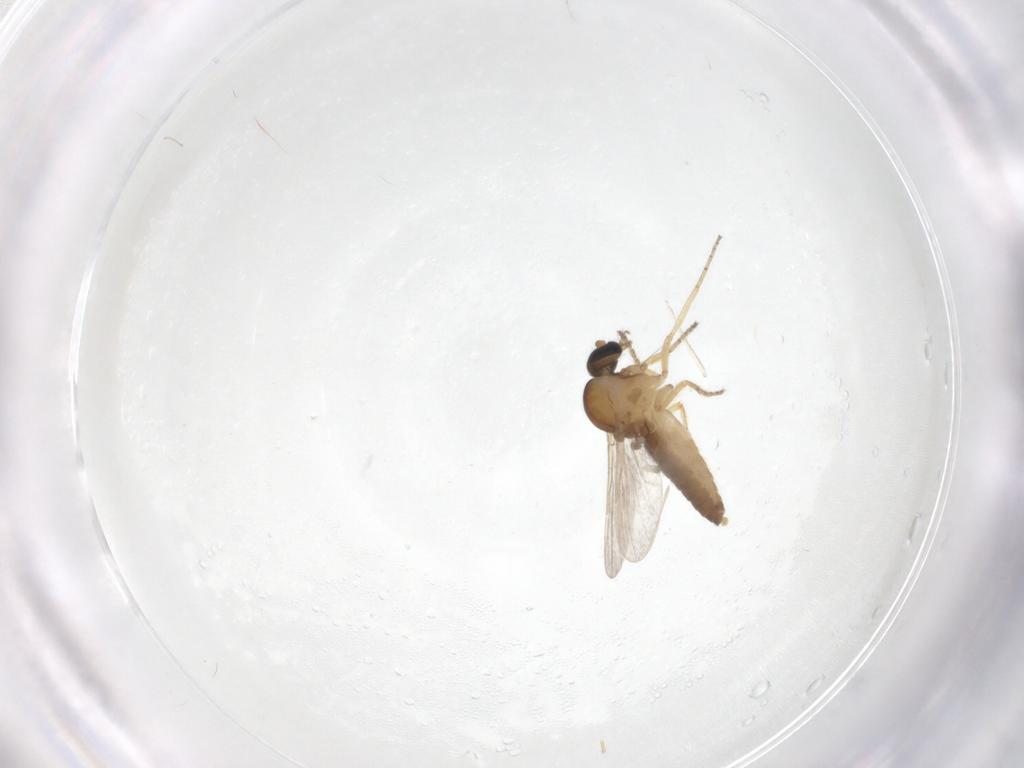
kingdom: Animalia
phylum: Arthropoda
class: Insecta
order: Diptera
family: Ceratopogonidae
